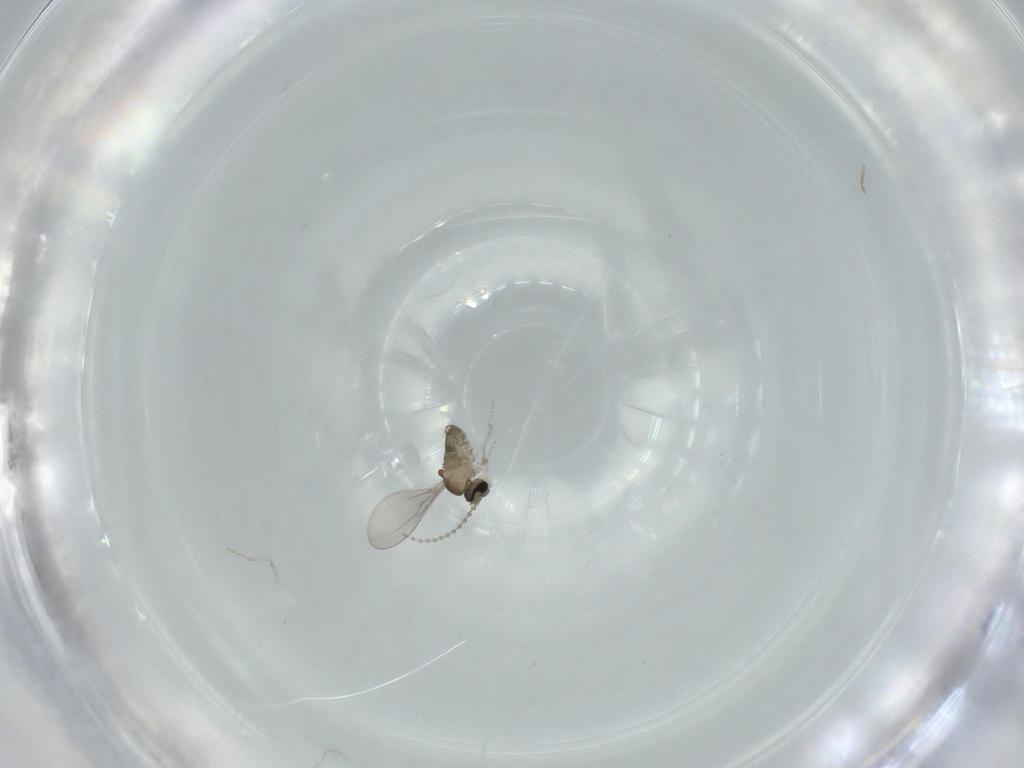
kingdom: Animalia
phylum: Arthropoda
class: Insecta
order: Diptera
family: Cecidomyiidae
